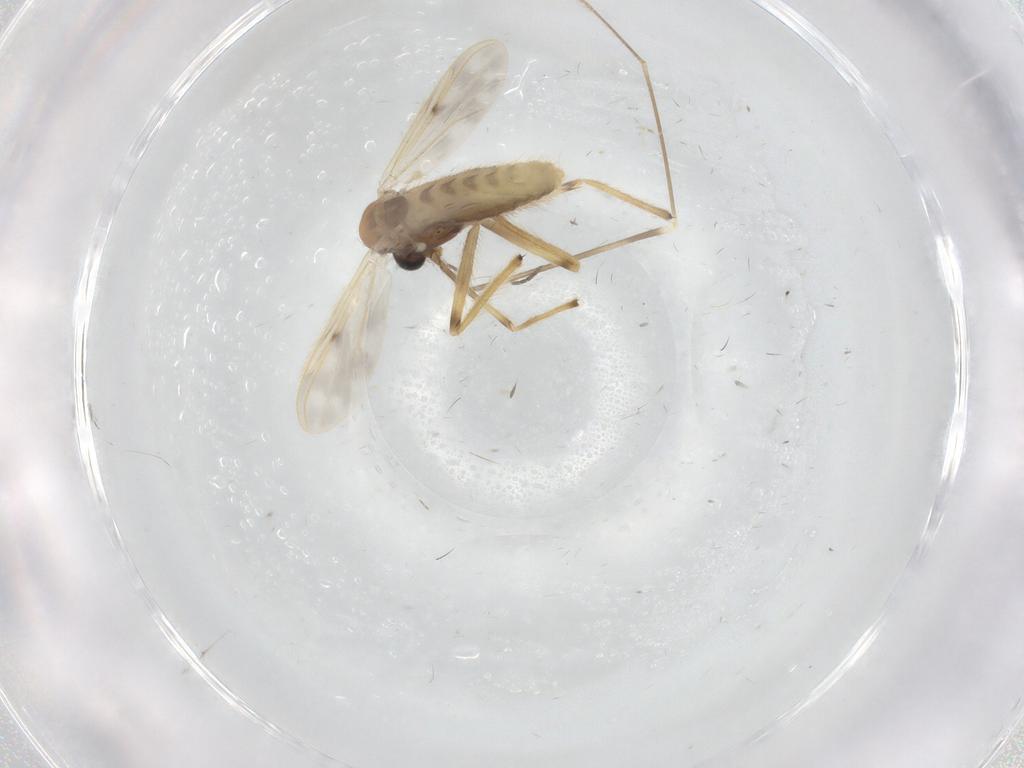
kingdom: Animalia
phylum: Arthropoda
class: Insecta
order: Diptera
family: Chironomidae
